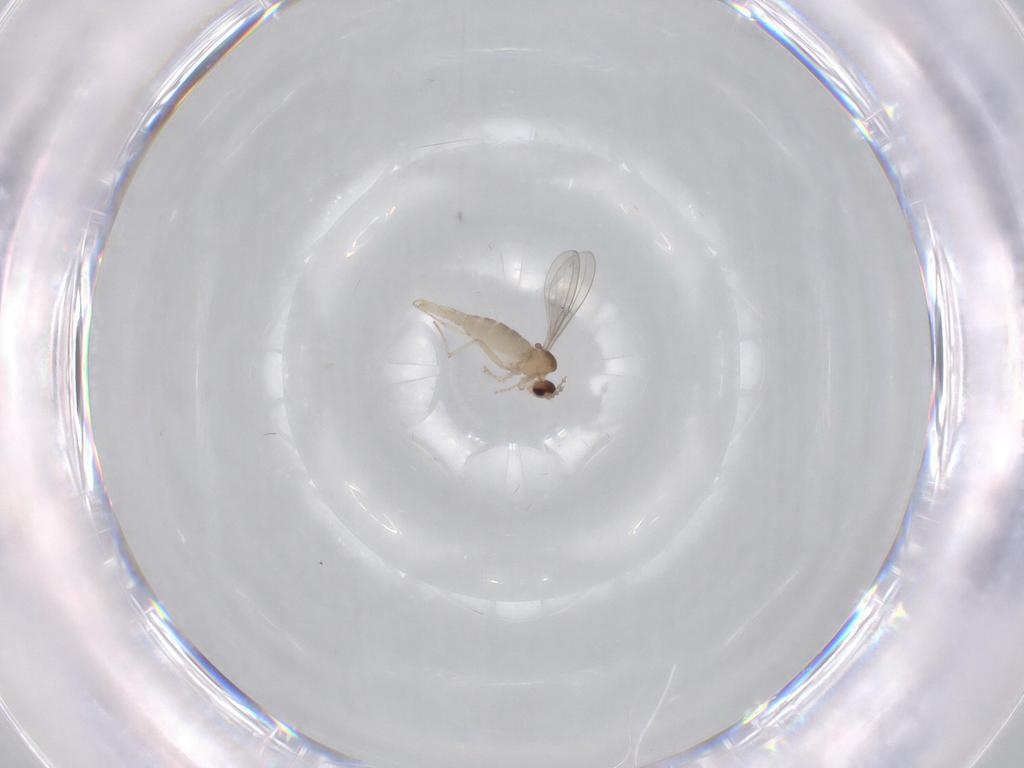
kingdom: Animalia
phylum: Arthropoda
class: Insecta
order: Diptera
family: Cecidomyiidae
